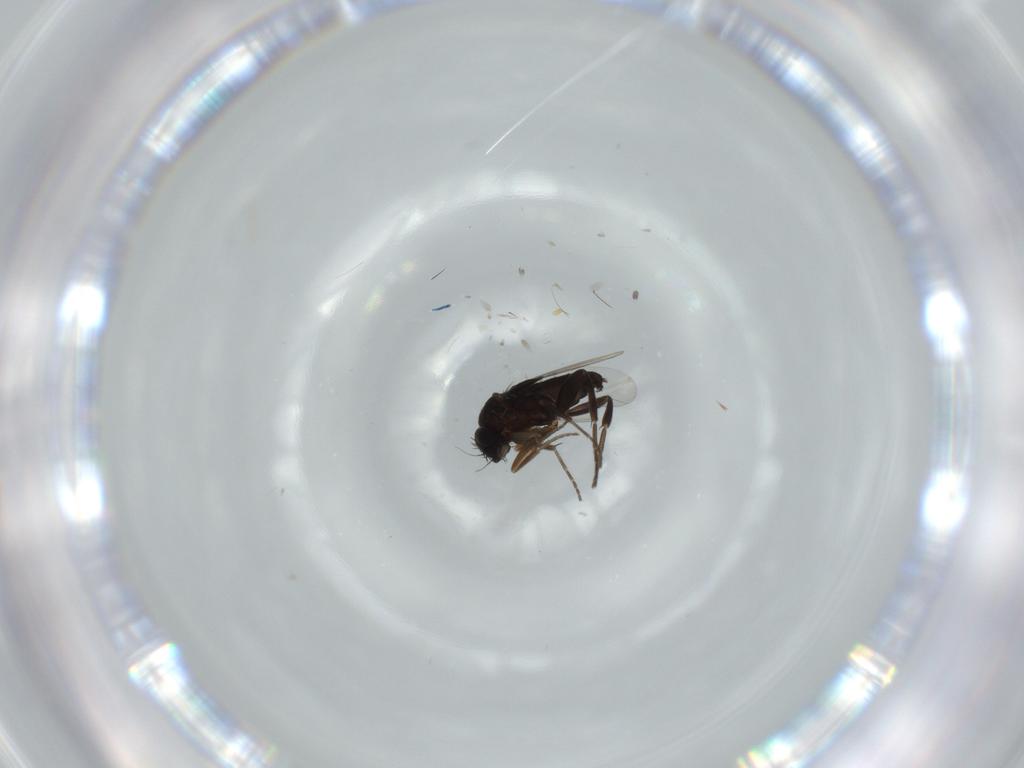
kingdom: Animalia
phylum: Arthropoda
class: Insecta
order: Diptera
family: Phoridae
